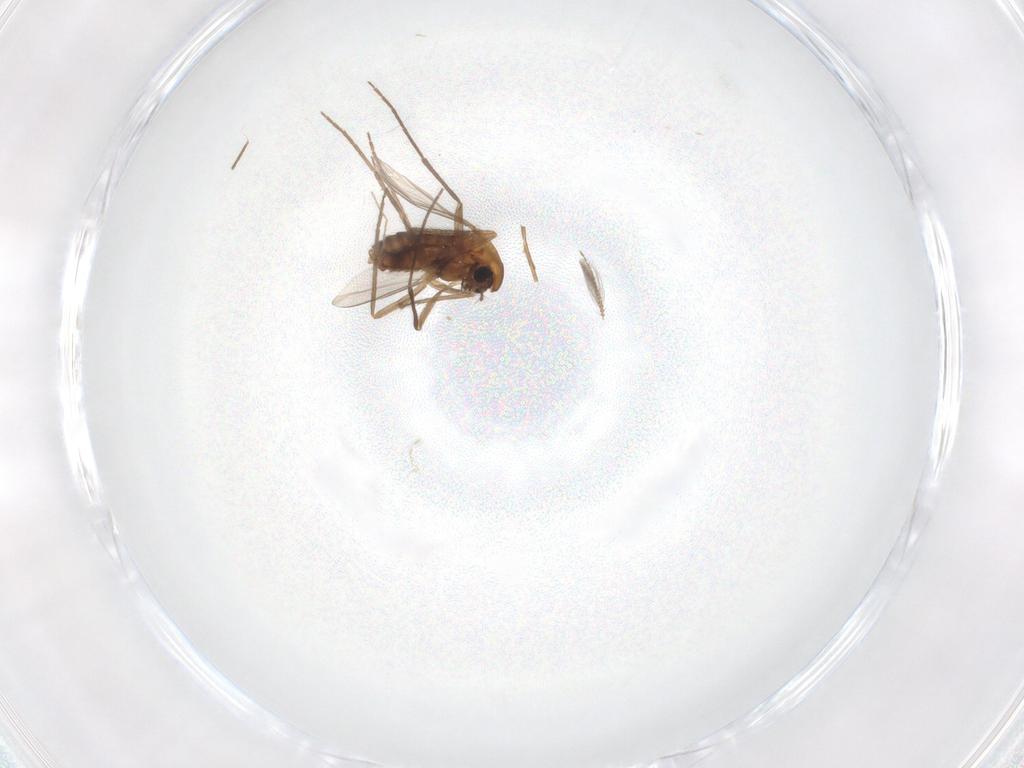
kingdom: Animalia
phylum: Arthropoda
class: Insecta
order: Diptera
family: Chironomidae
